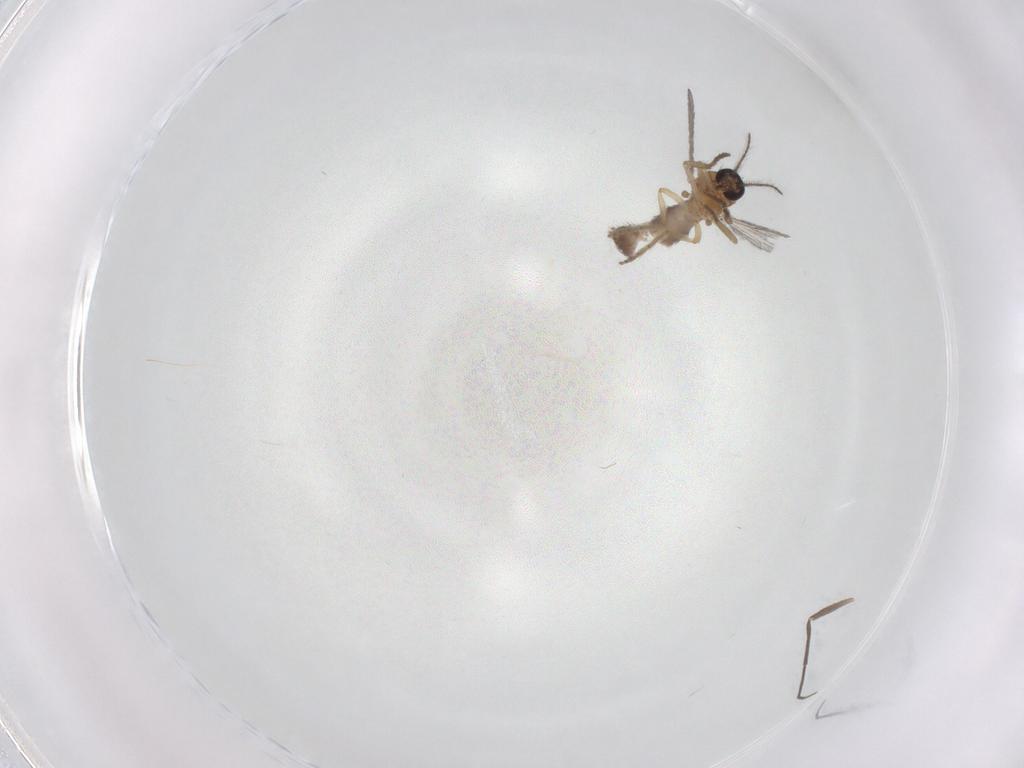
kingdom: Animalia
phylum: Arthropoda
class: Insecta
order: Diptera
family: Chironomidae
